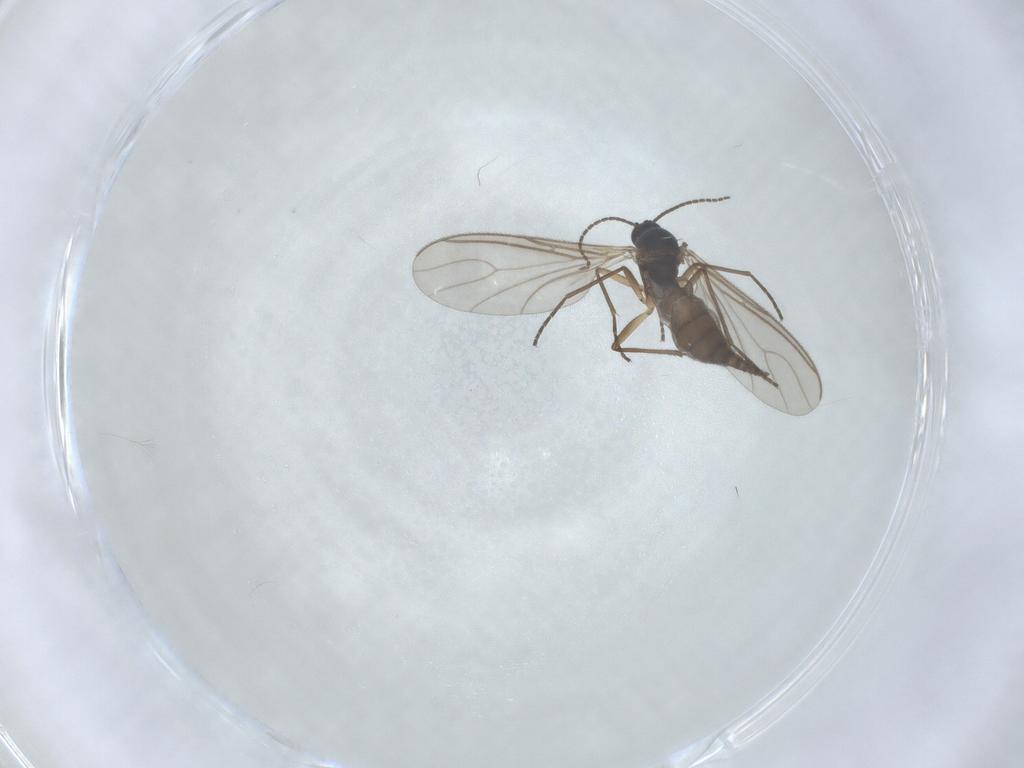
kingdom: Animalia
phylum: Arthropoda
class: Insecta
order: Diptera
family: Sciaridae
